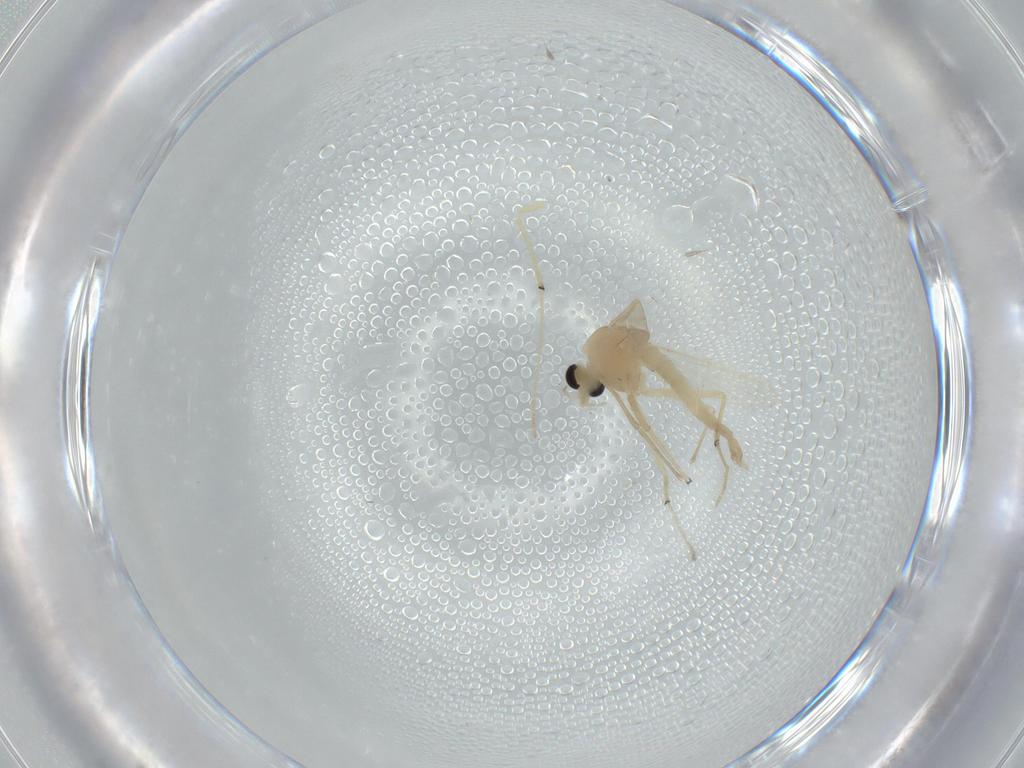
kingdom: Animalia
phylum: Arthropoda
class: Insecta
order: Diptera
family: Chironomidae
